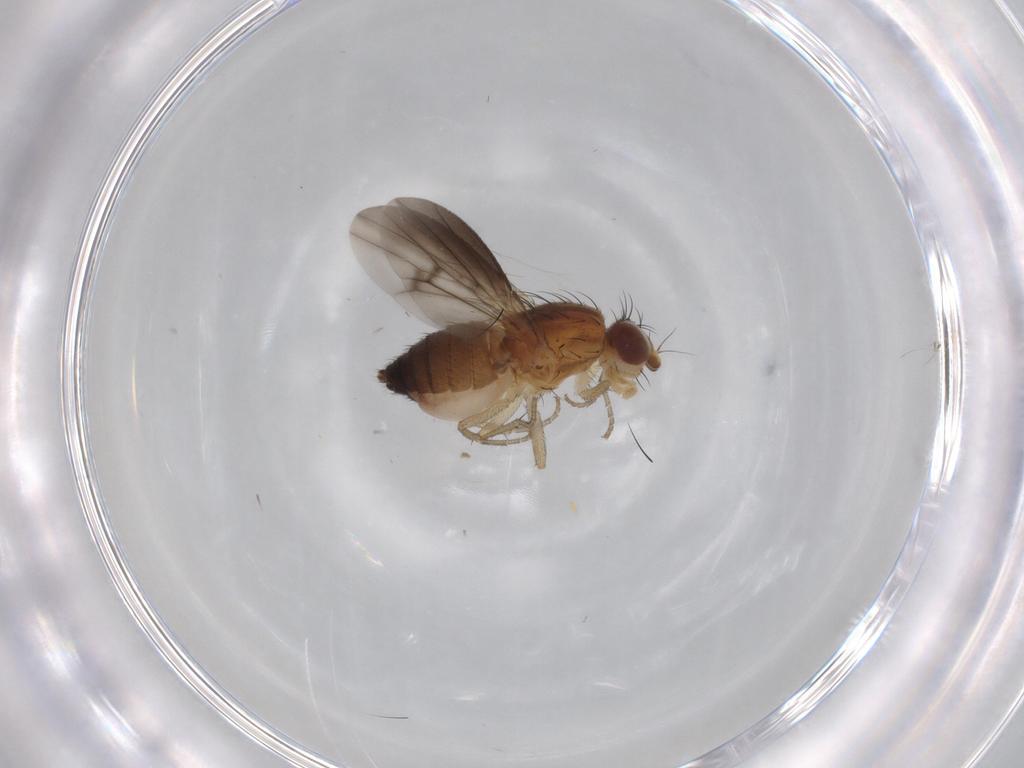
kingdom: Animalia
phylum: Arthropoda
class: Insecta
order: Diptera
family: Heleomyzidae
